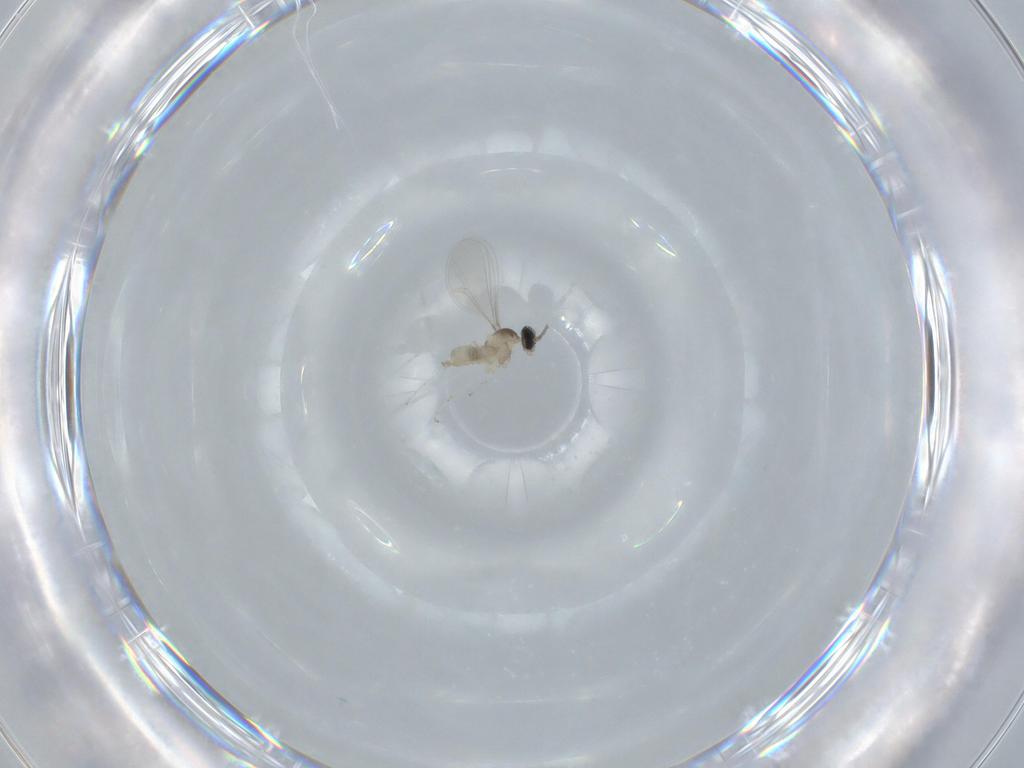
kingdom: Animalia
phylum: Arthropoda
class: Insecta
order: Diptera
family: Cecidomyiidae
